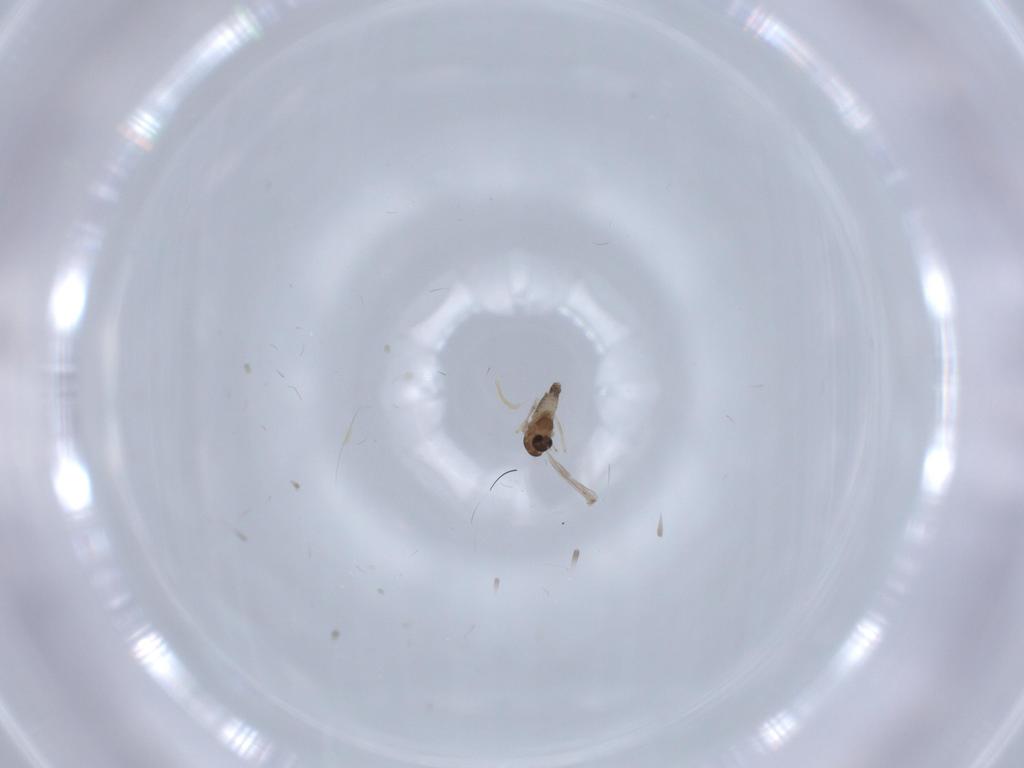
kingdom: Animalia
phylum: Arthropoda
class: Insecta
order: Diptera
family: Chironomidae
